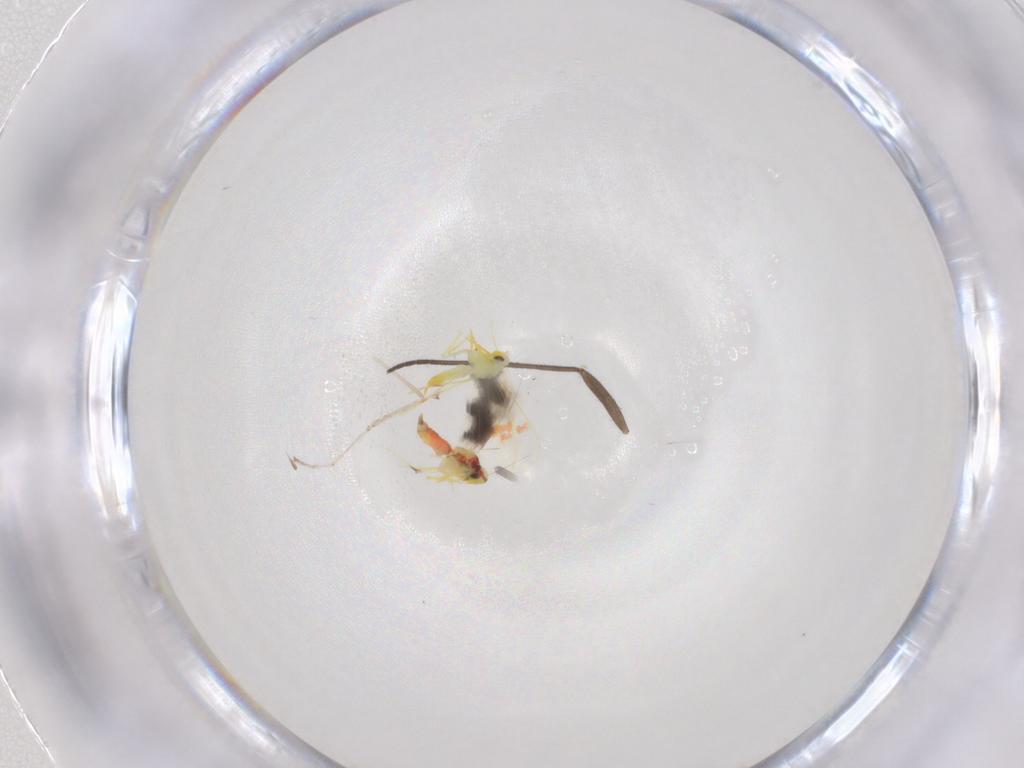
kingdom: Animalia
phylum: Arthropoda
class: Insecta
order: Hemiptera
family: Aleyrodidae
